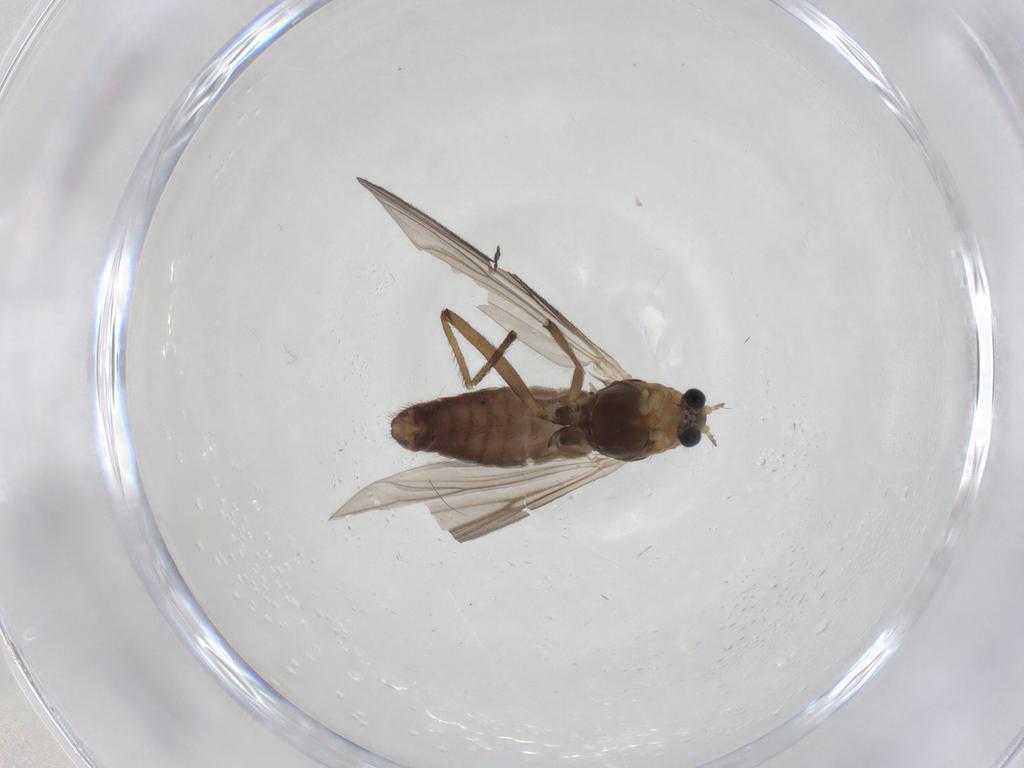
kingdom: Animalia
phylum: Arthropoda
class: Insecta
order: Diptera
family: Chironomidae
